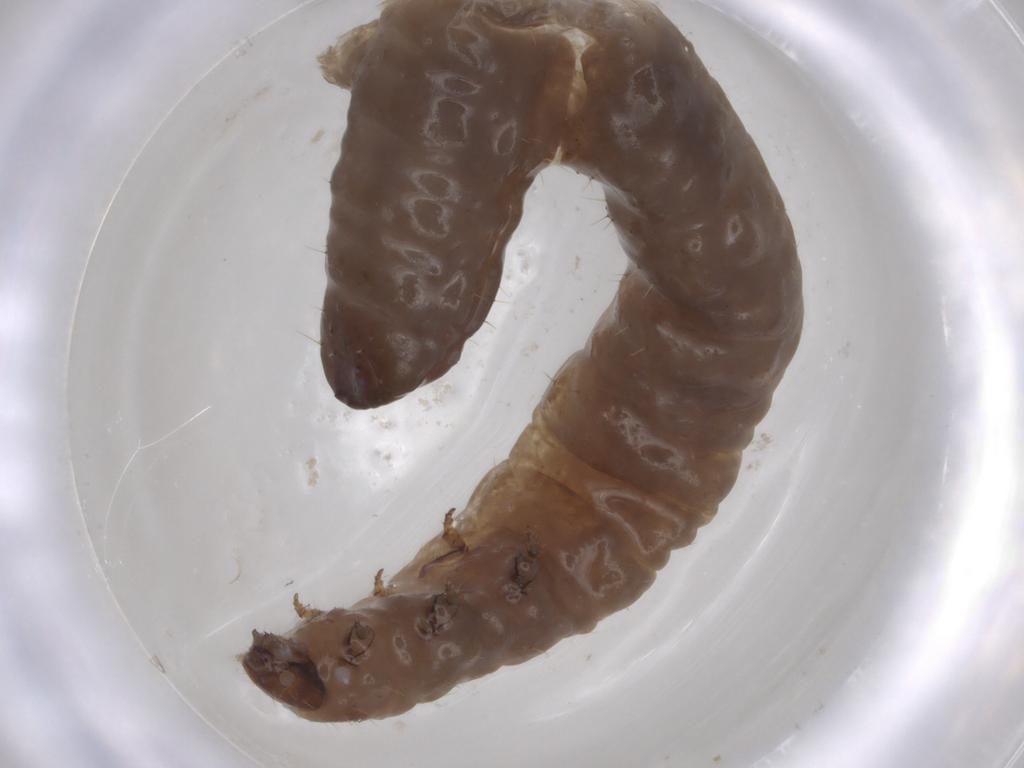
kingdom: Animalia
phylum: Arthropoda
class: Insecta
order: Coleoptera
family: Chrysomelidae
